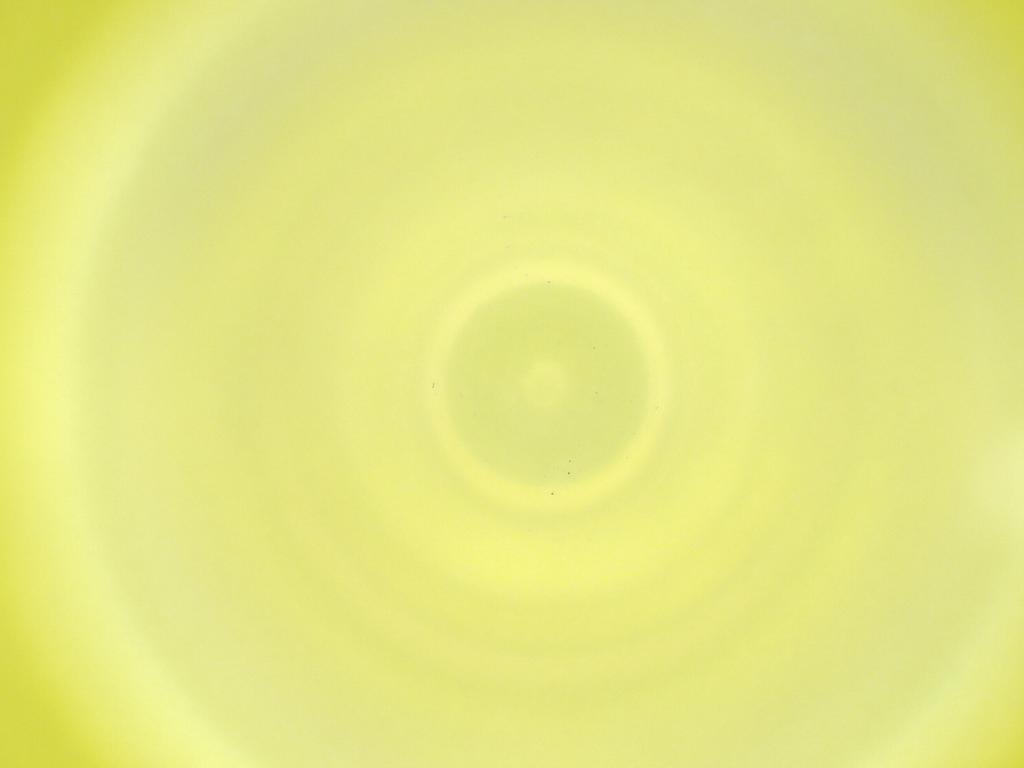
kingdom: Animalia
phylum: Arthropoda
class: Insecta
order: Diptera
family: Cecidomyiidae
